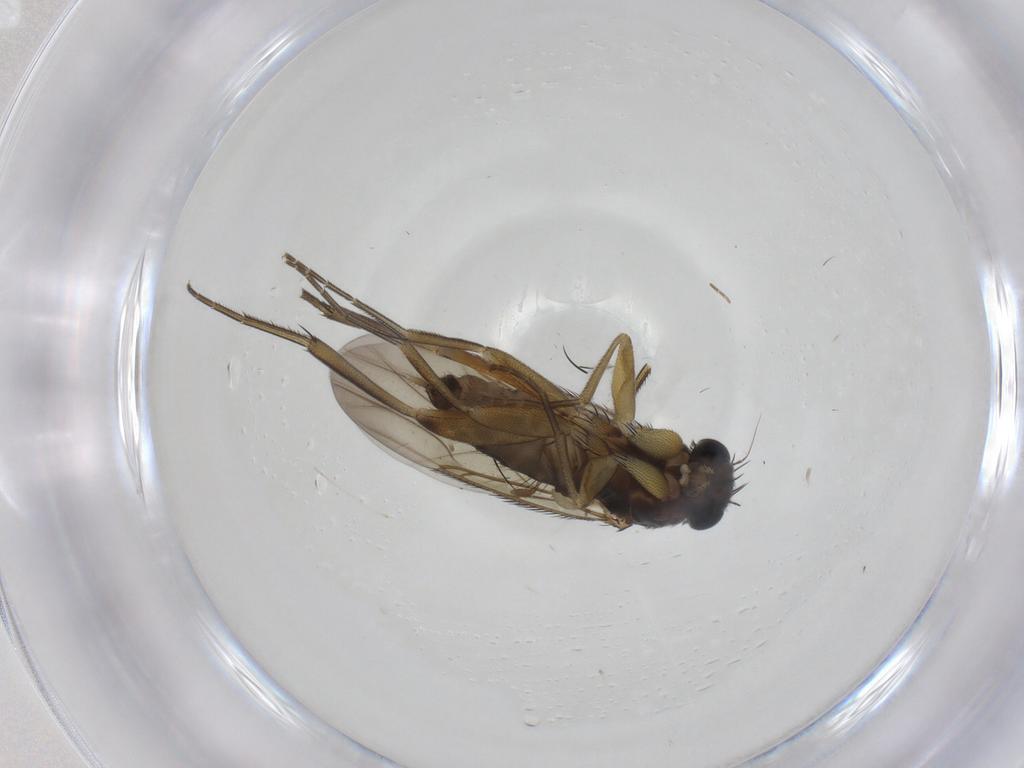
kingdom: Animalia
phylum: Arthropoda
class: Insecta
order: Diptera
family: Phoridae
